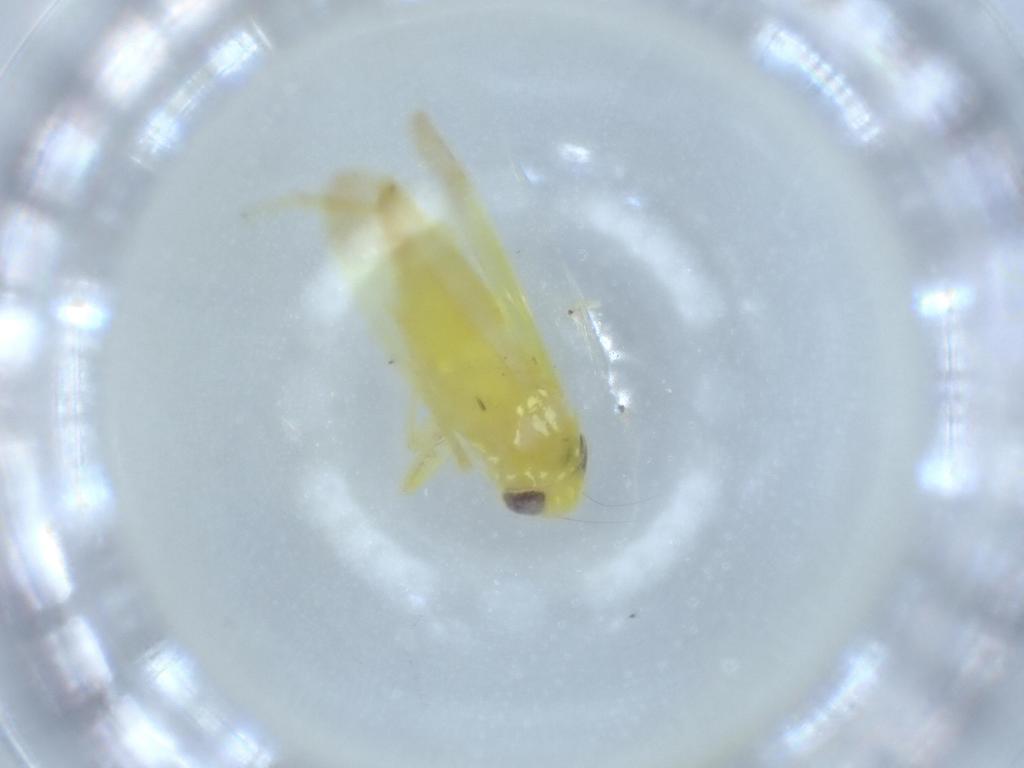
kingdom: Animalia
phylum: Arthropoda
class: Insecta
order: Hemiptera
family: Cicadellidae
